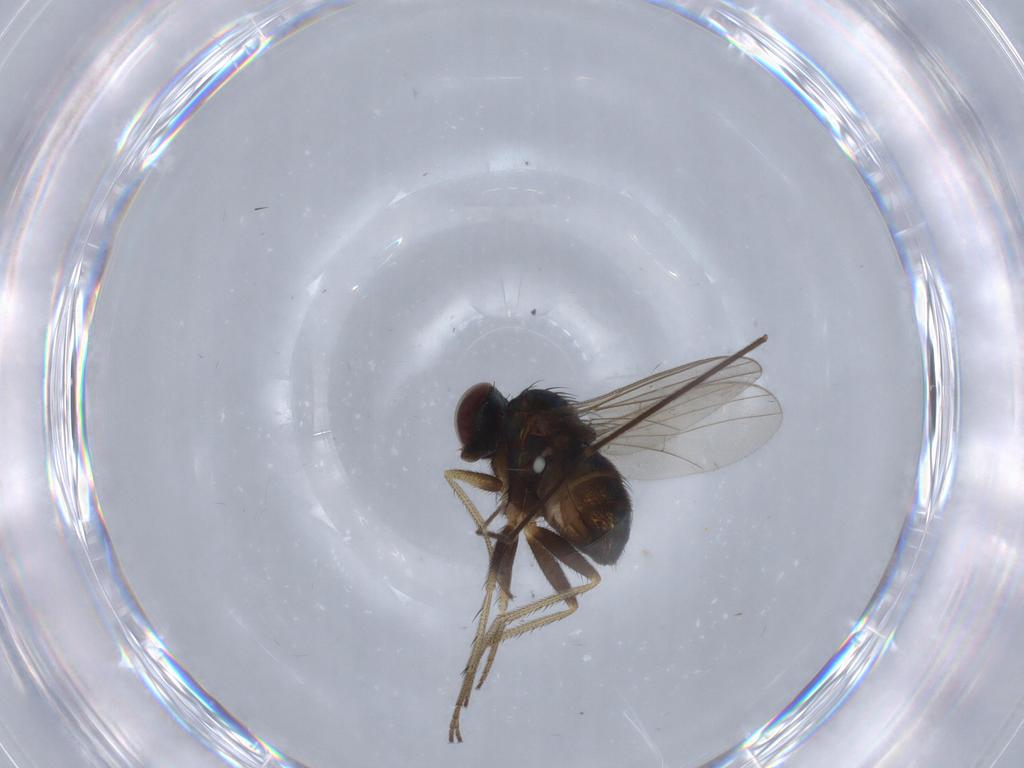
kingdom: Animalia
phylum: Arthropoda
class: Insecta
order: Diptera
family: Chironomidae
